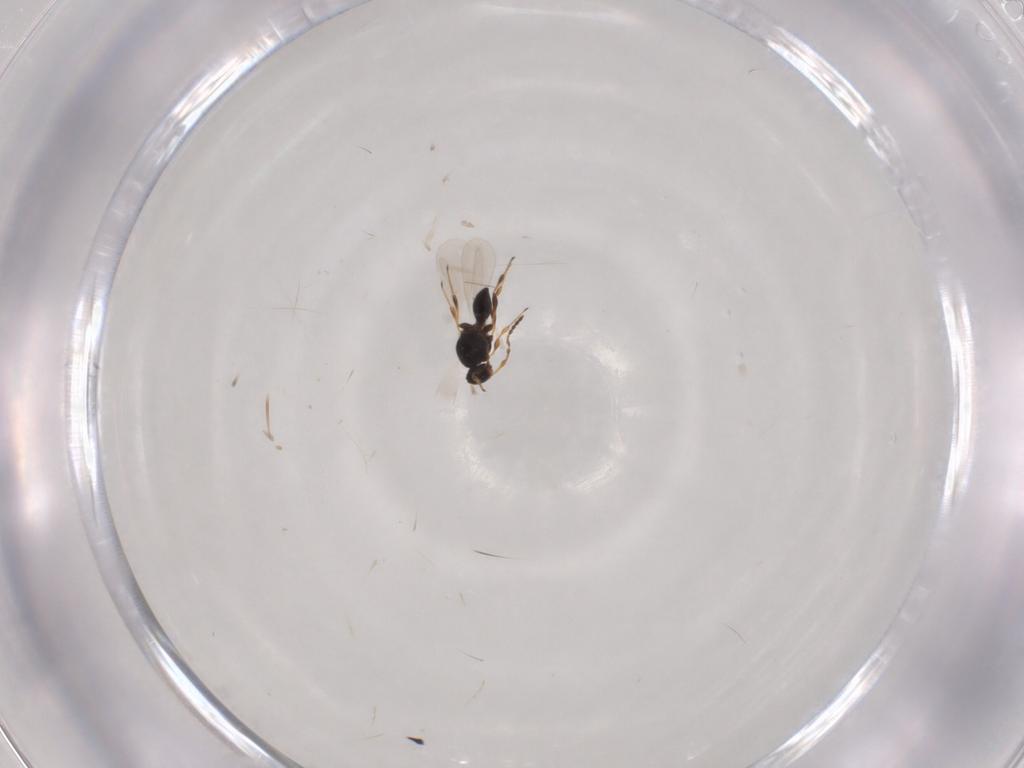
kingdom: Animalia
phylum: Arthropoda
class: Insecta
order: Hymenoptera
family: Platygastridae
